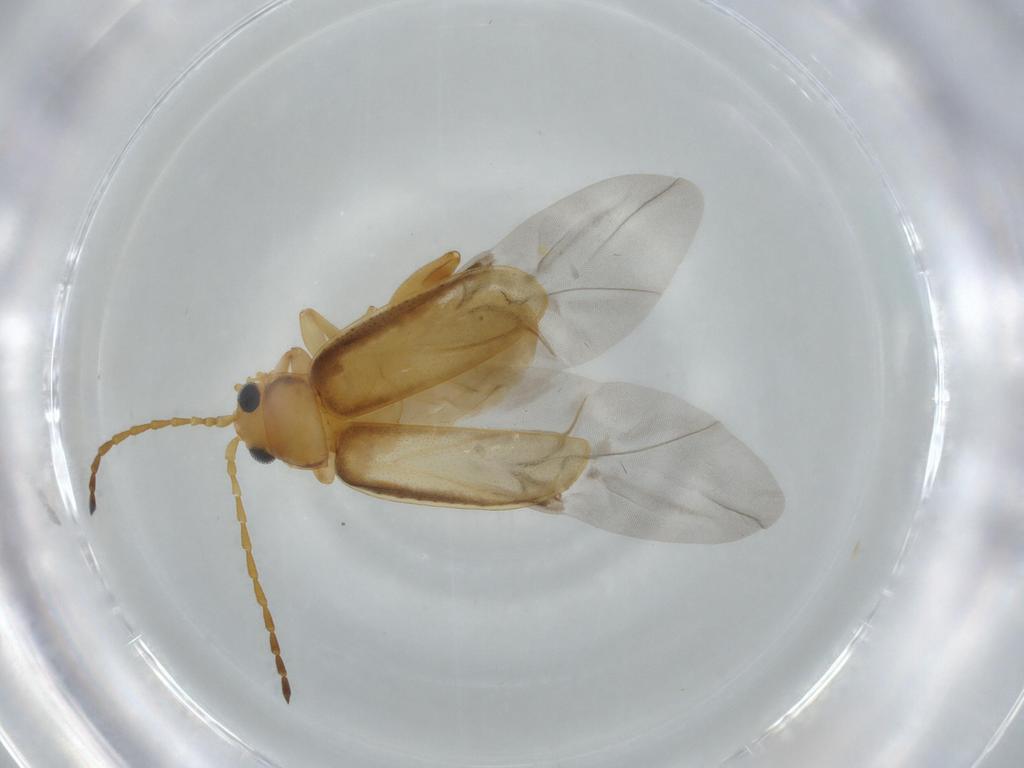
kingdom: Animalia
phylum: Arthropoda
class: Insecta
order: Coleoptera
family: Chrysomelidae
